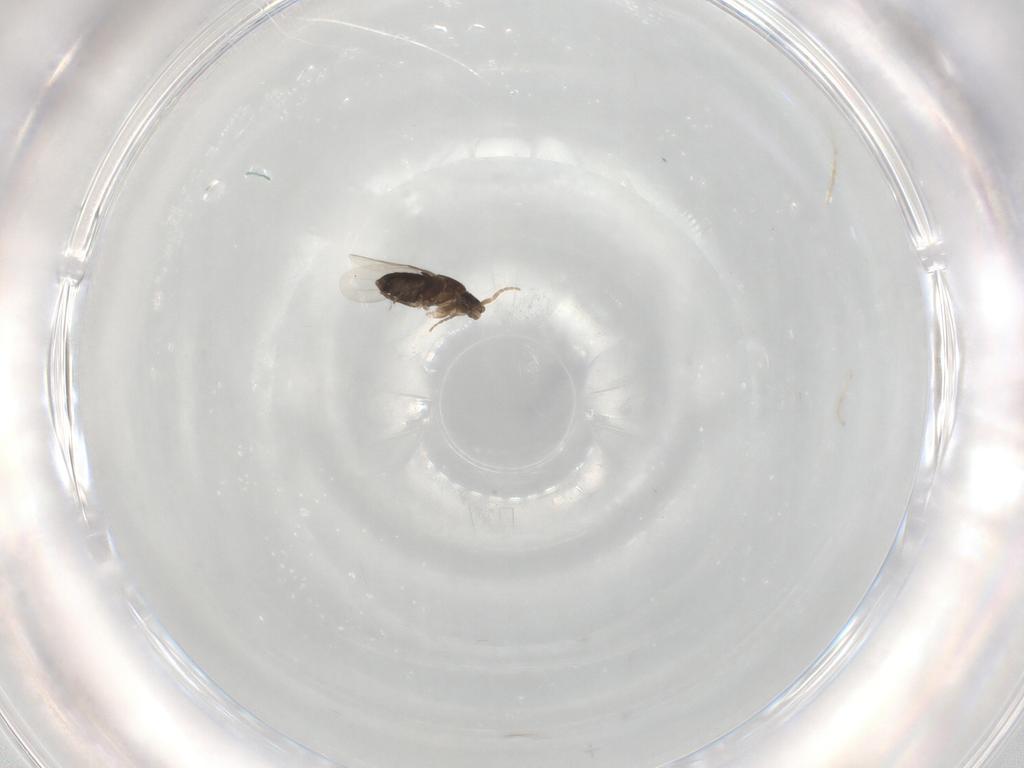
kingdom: Animalia
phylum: Arthropoda
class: Insecta
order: Diptera
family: Phoridae
